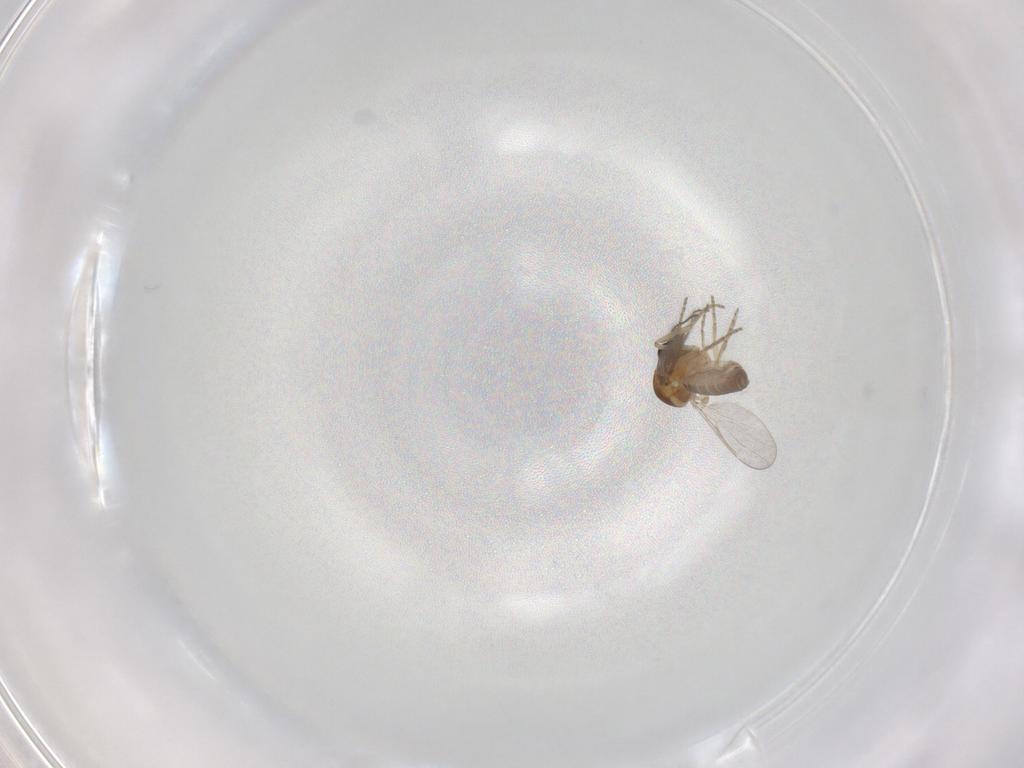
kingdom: Animalia
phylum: Arthropoda
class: Insecta
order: Diptera
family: Ceratopogonidae
